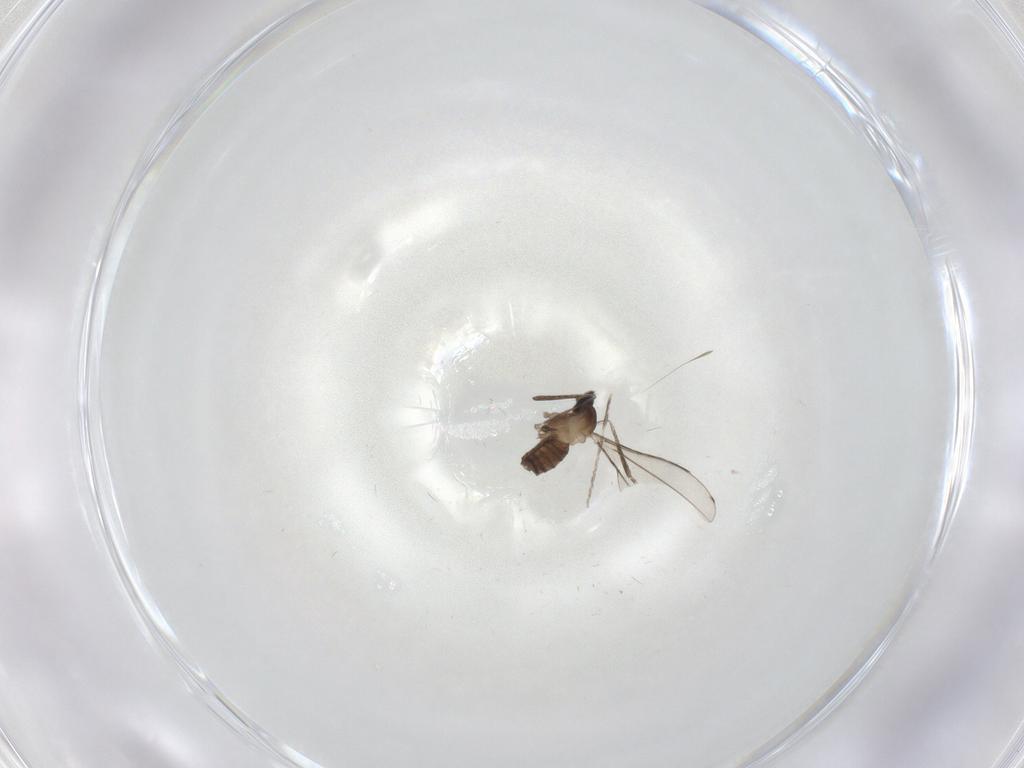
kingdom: Animalia
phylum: Arthropoda
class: Insecta
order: Diptera
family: Cecidomyiidae
